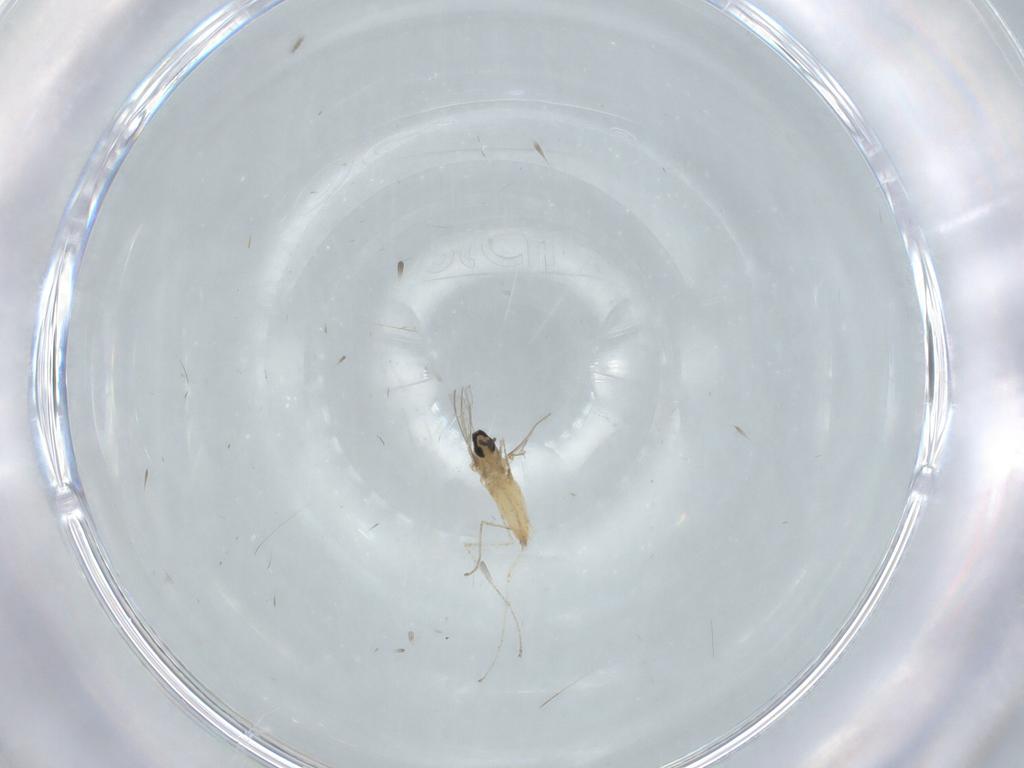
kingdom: Animalia
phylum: Arthropoda
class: Insecta
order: Diptera
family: Cecidomyiidae
